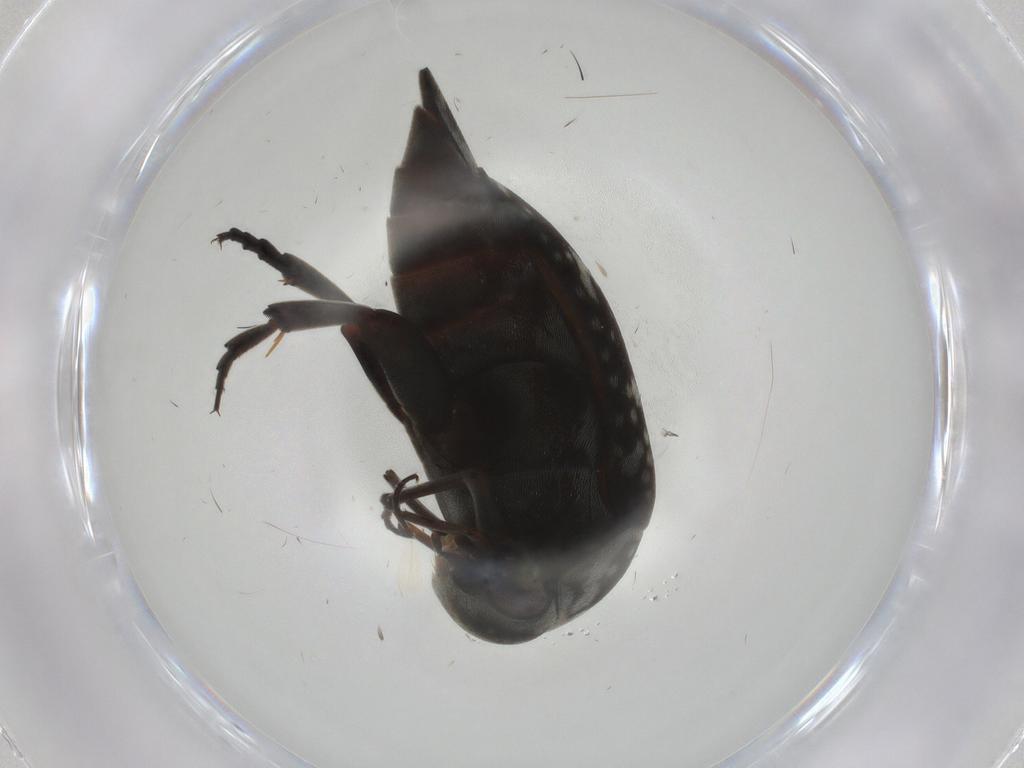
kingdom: Animalia
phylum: Arthropoda
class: Insecta
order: Coleoptera
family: Mordellidae
